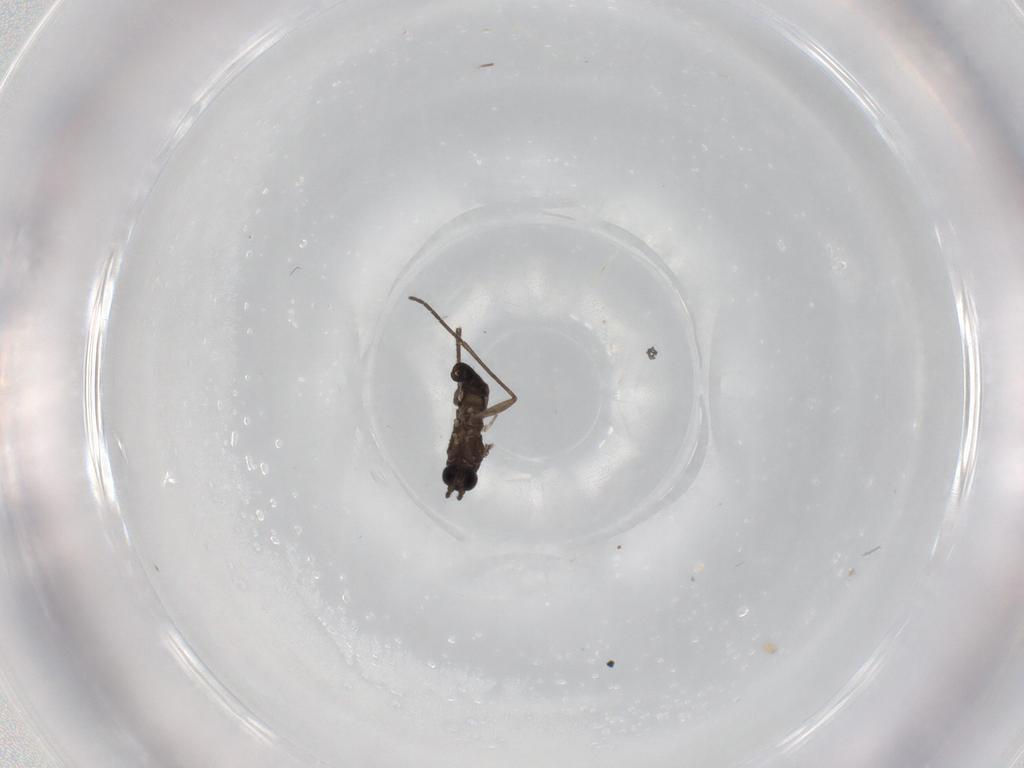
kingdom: Animalia
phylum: Arthropoda
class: Insecta
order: Diptera
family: Sciaridae
